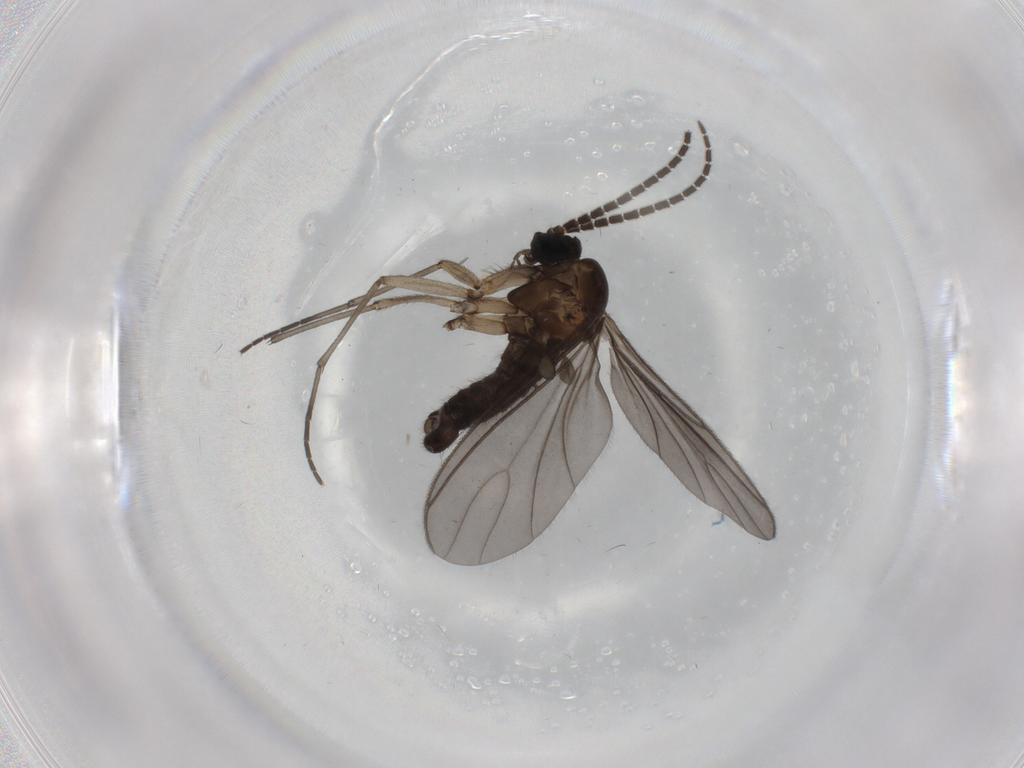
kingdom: Animalia
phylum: Arthropoda
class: Insecta
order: Diptera
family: Sciaridae
